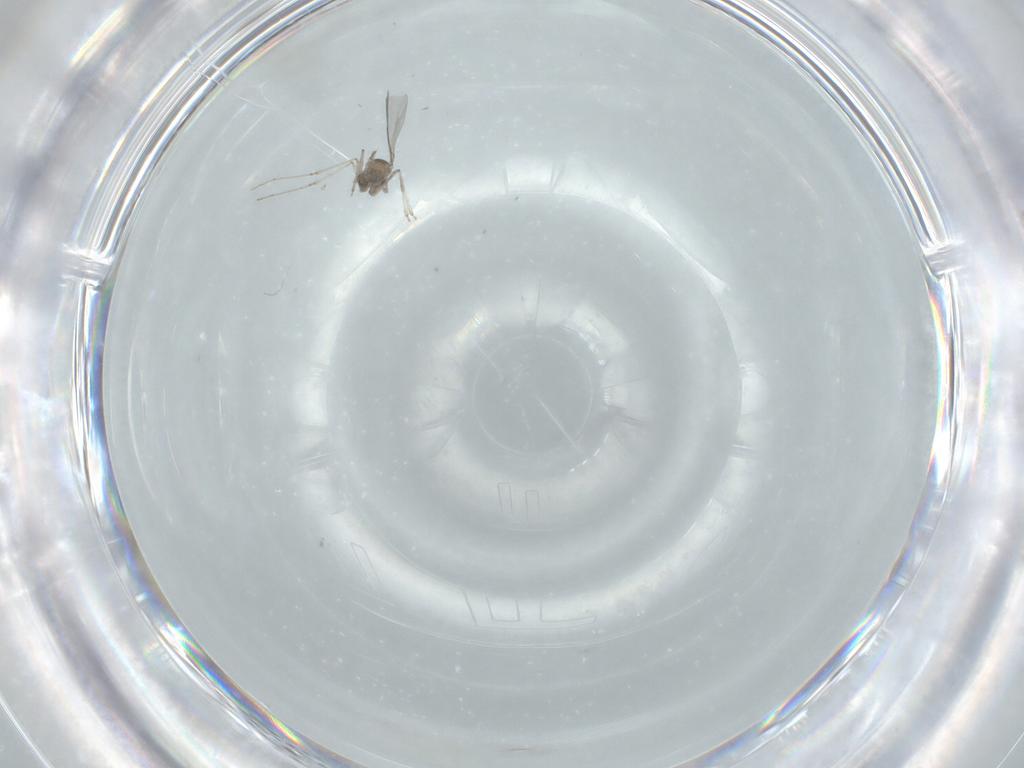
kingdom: Animalia
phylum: Arthropoda
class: Insecta
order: Diptera
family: Cecidomyiidae
